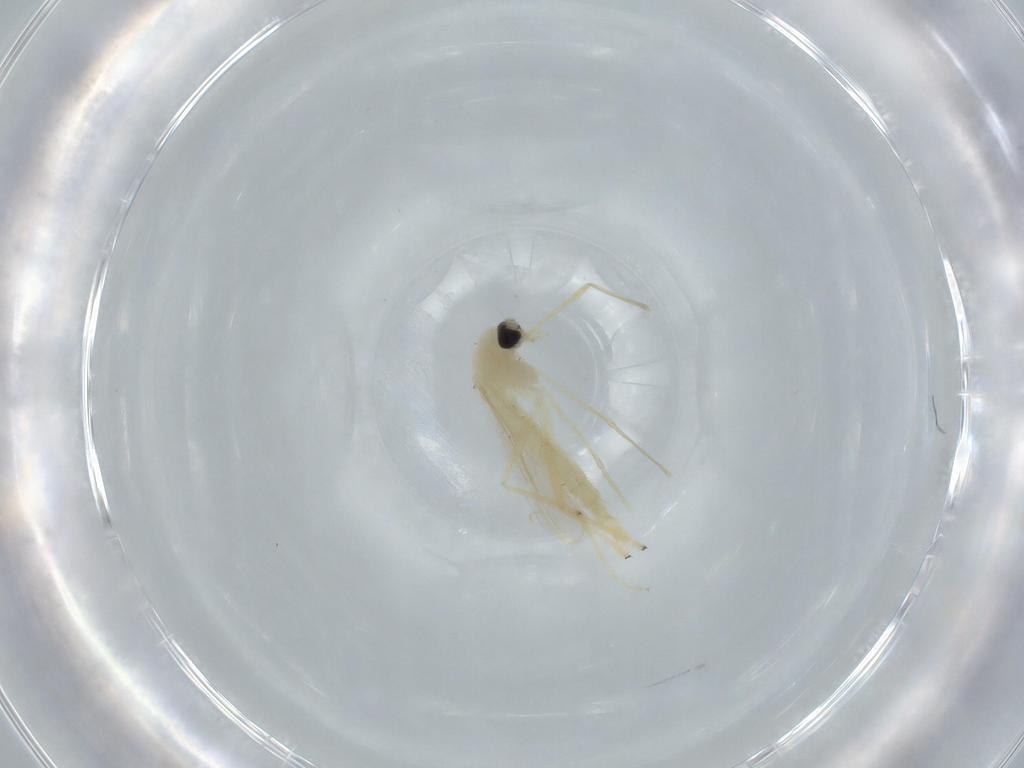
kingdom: Animalia
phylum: Arthropoda
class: Insecta
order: Diptera
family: Chironomidae
